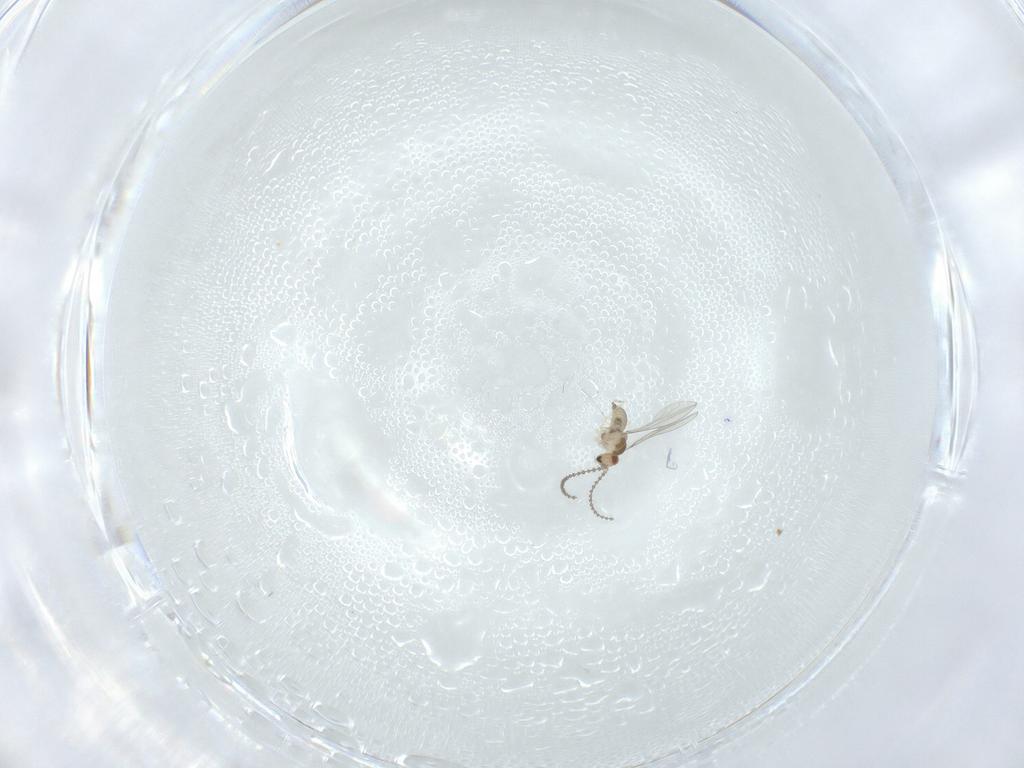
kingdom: Animalia
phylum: Arthropoda
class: Insecta
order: Diptera
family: Cecidomyiidae
